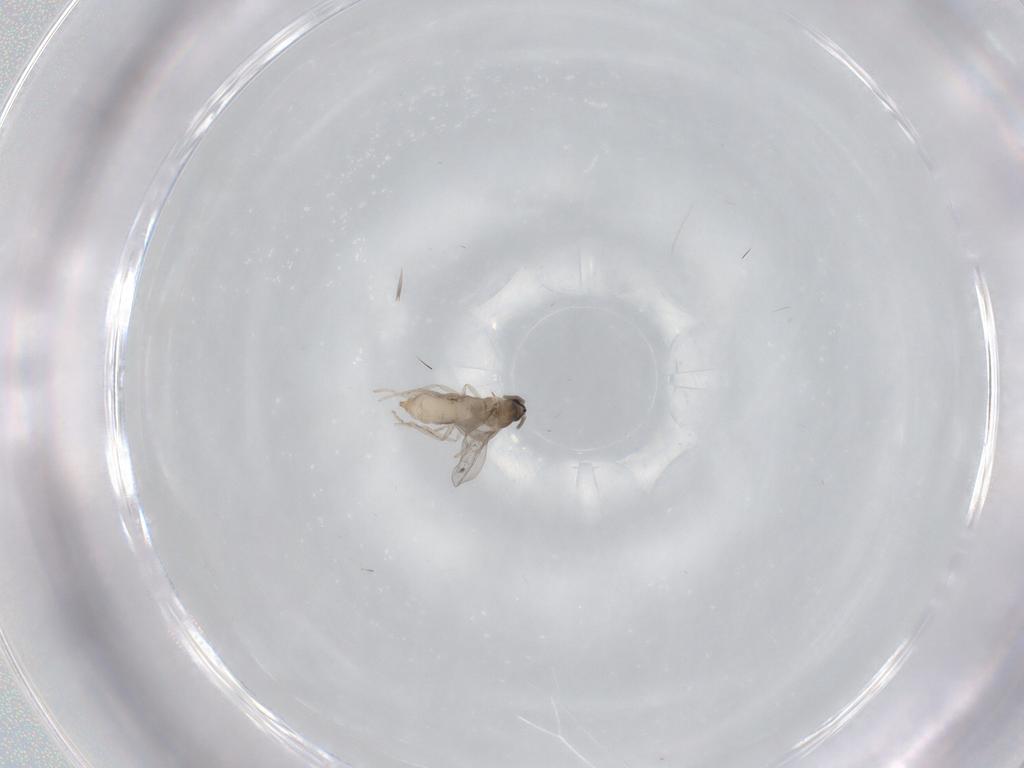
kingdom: Animalia
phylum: Arthropoda
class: Insecta
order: Diptera
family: Cecidomyiidae
